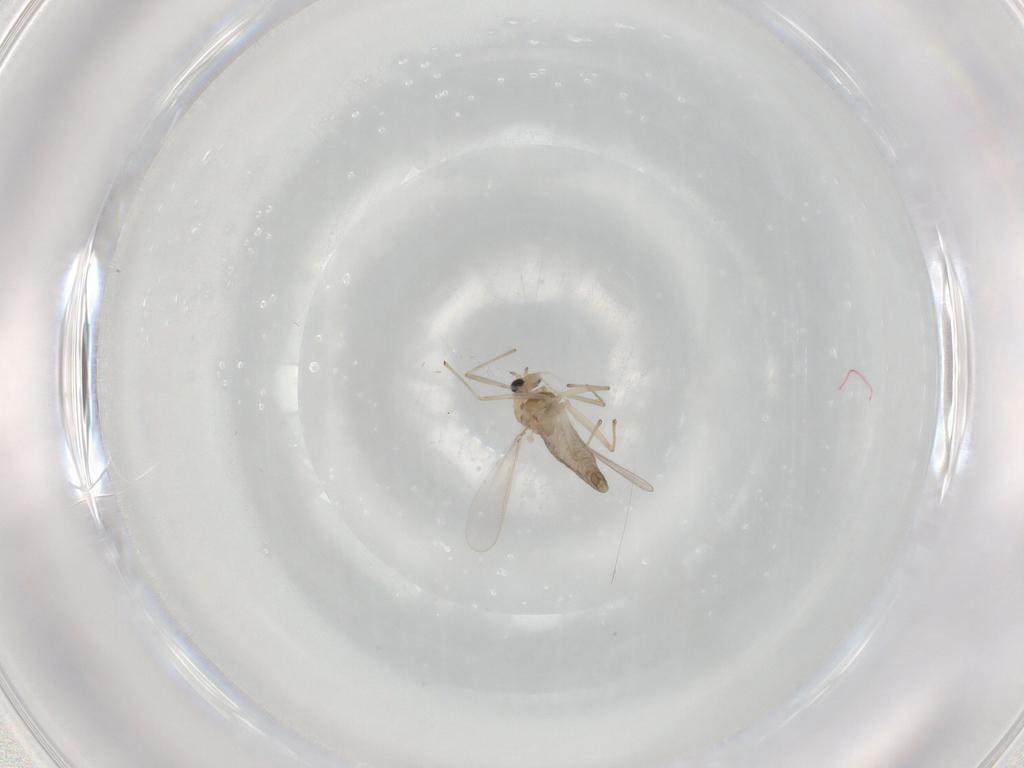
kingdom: Animalia
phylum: Arthropoda
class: Insecta
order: Diptera
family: Chironomidae
